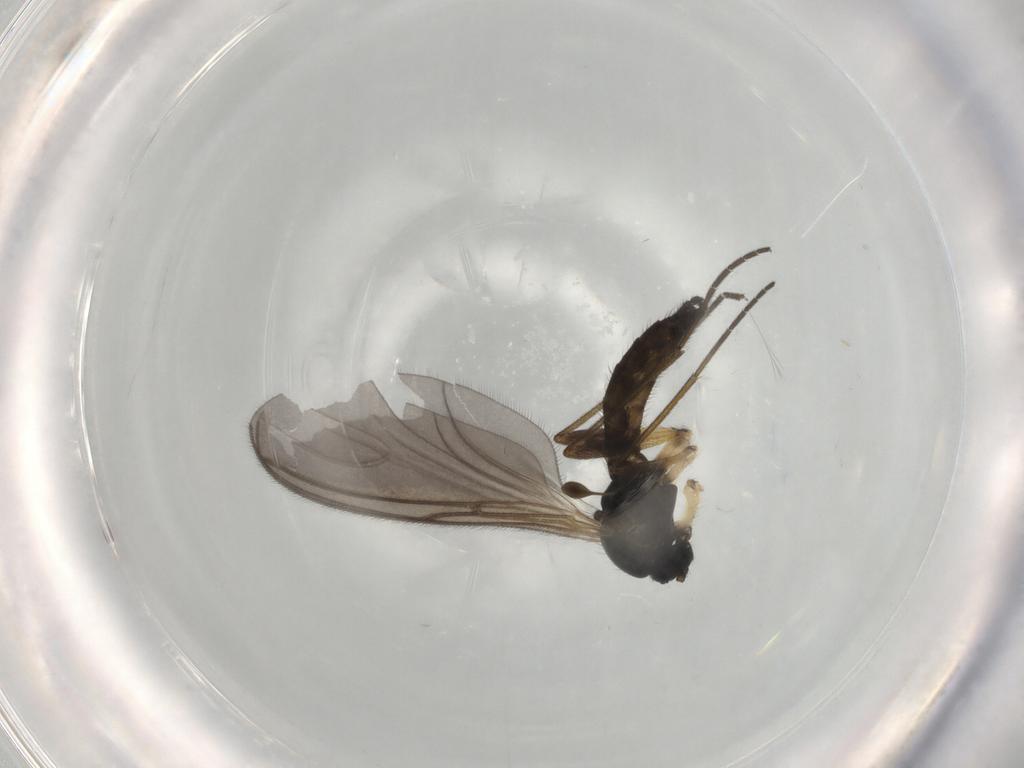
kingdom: Animalia
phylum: Arthropoda
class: Insecta
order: Diptera
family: Sciaridae
